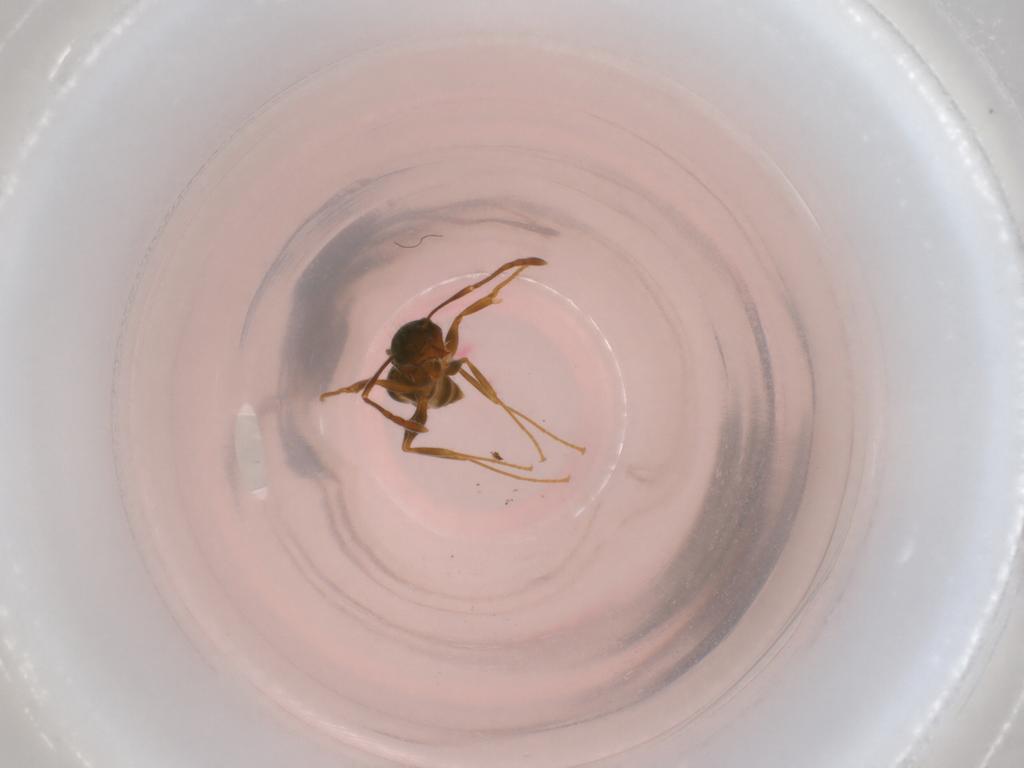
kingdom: Animalia
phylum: Arthropoda
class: Insecta
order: Hymenoptera
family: Formicidae
